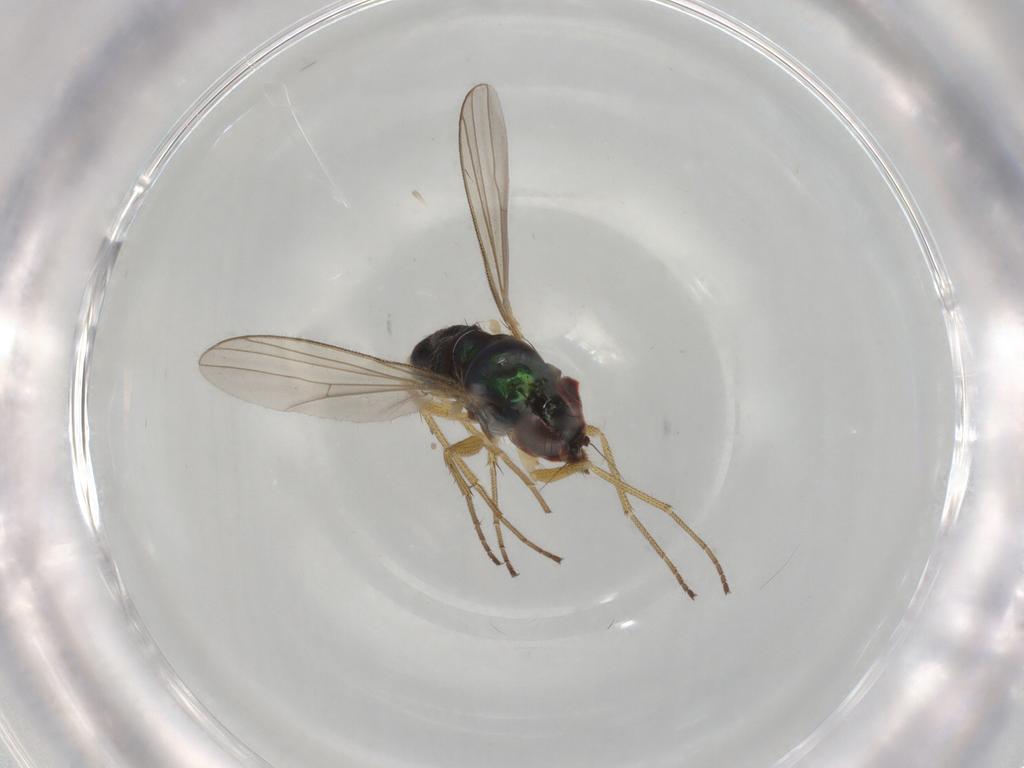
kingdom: Animalia
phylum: Arthropoda
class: Insecta
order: Diptera
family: Dolichopodidae
